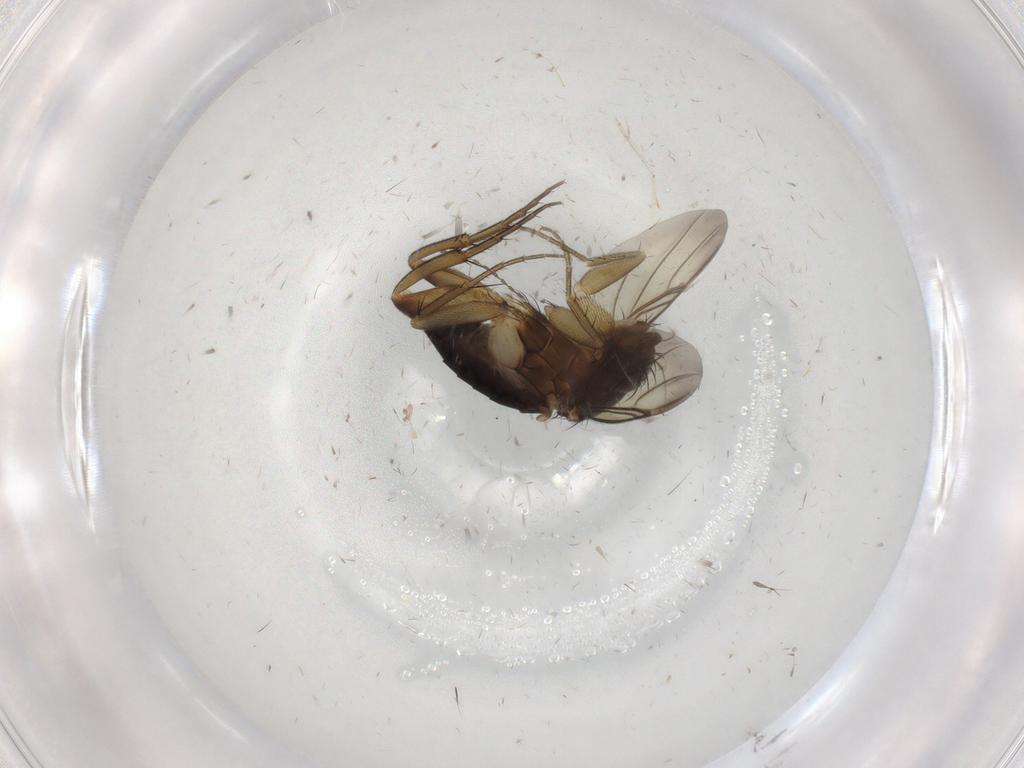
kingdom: Animalia
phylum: Arthropoda
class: Insecta
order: Diptera
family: Phoridae
